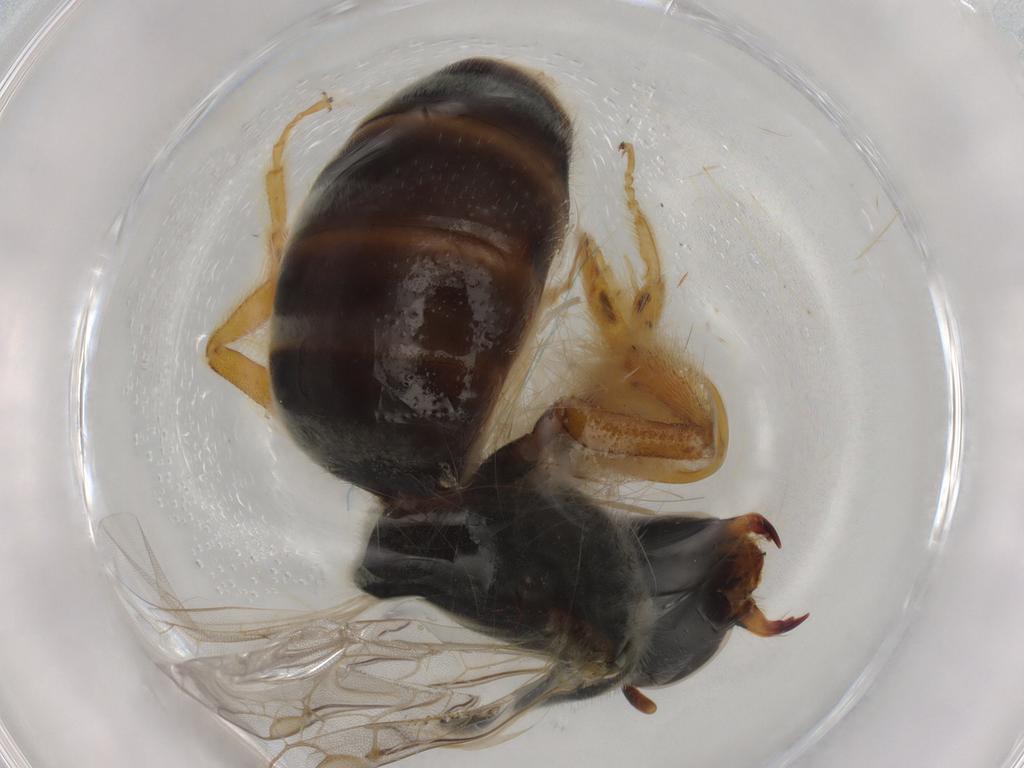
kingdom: Animalia
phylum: Arthropoda
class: Insecta
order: Hymenoptera
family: Halictidae
